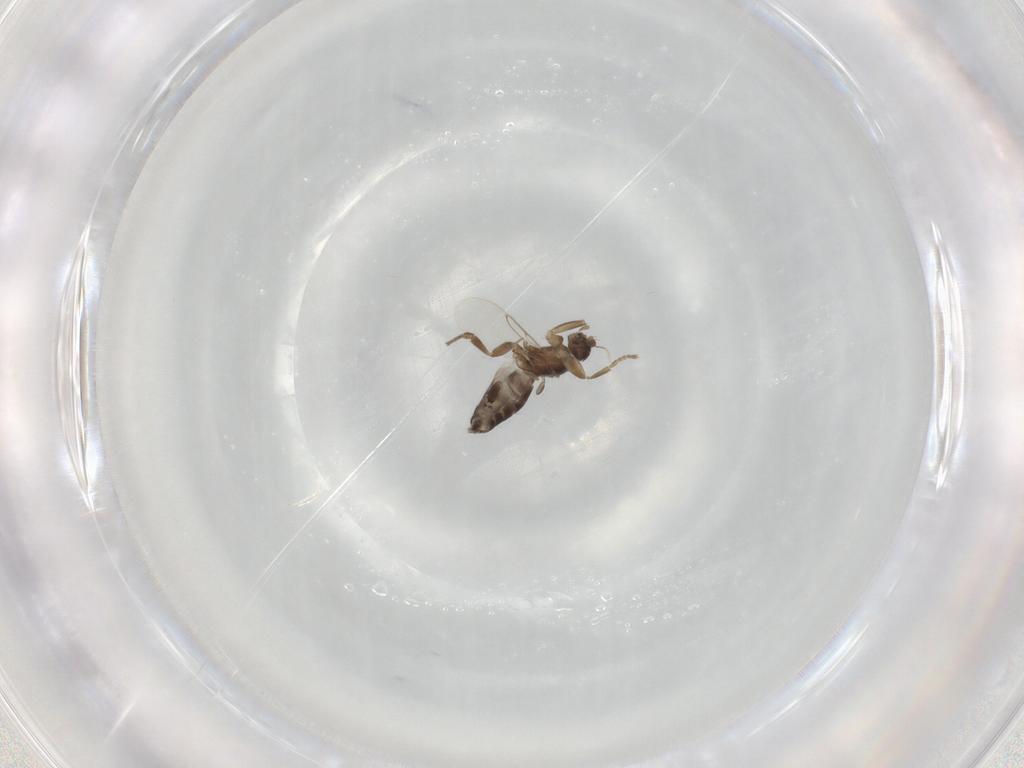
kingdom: Animalia
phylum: Arthropoda
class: Insecta
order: Diptera
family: Phoridae
